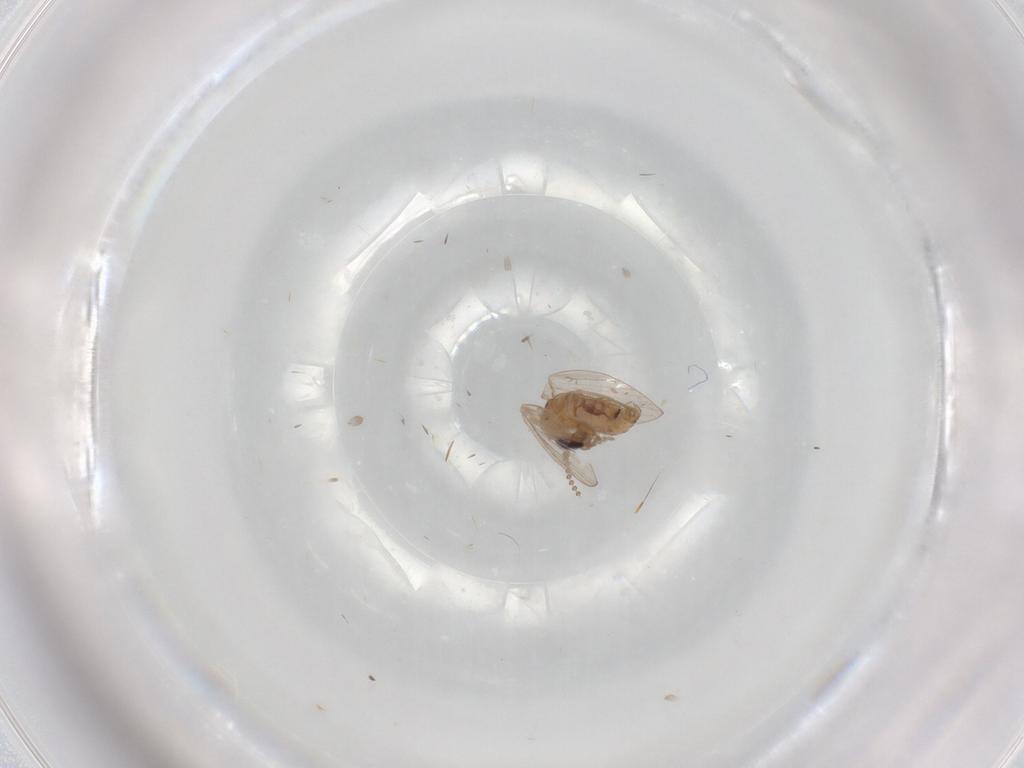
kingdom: Animalia
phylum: Arthropoda
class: Insecta
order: Diptera
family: Psychodidae
